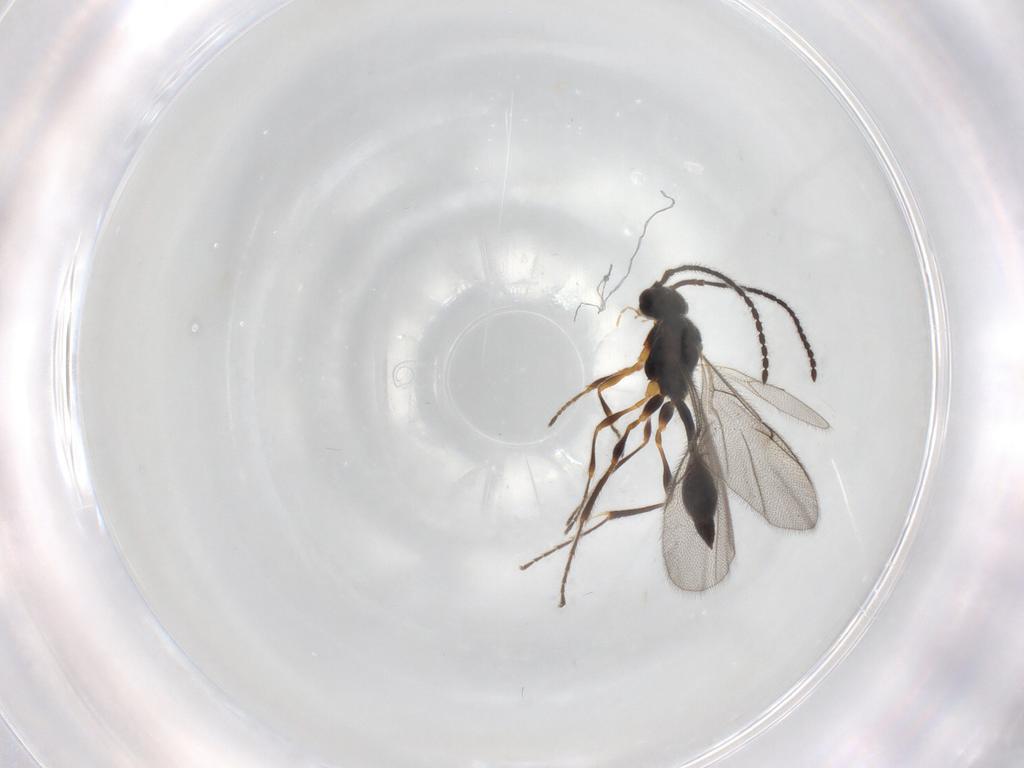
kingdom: Animalia
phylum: Arthropoda
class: Insecta
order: Hymenoptera
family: Diapriidae
